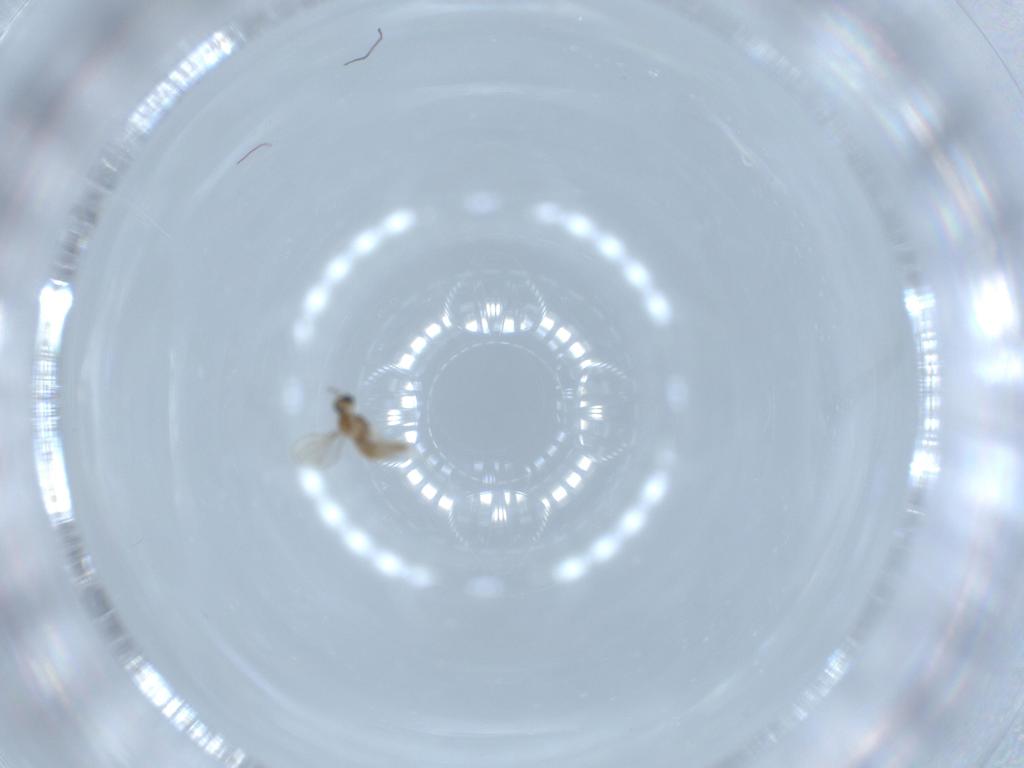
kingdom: Animalia
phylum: Arthropoda
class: Insecta
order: Diptera
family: Cecidomyiidae
